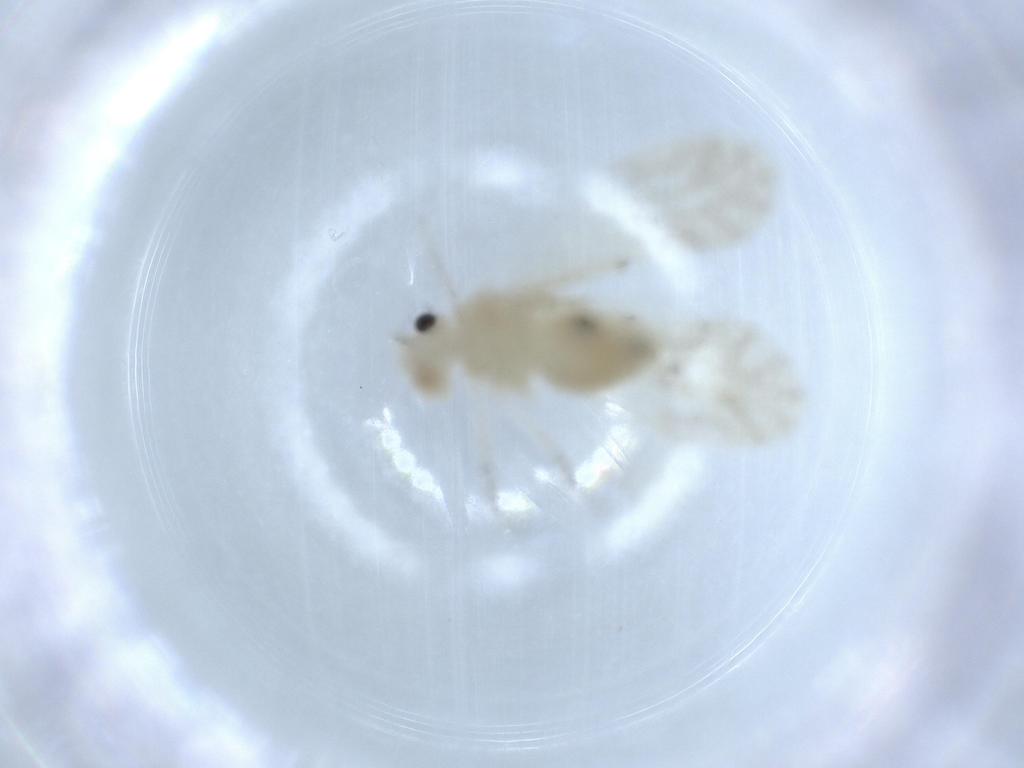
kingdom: Animalia
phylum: Arthropoda
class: Insecta
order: Psocodea
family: Caeciliusidae
